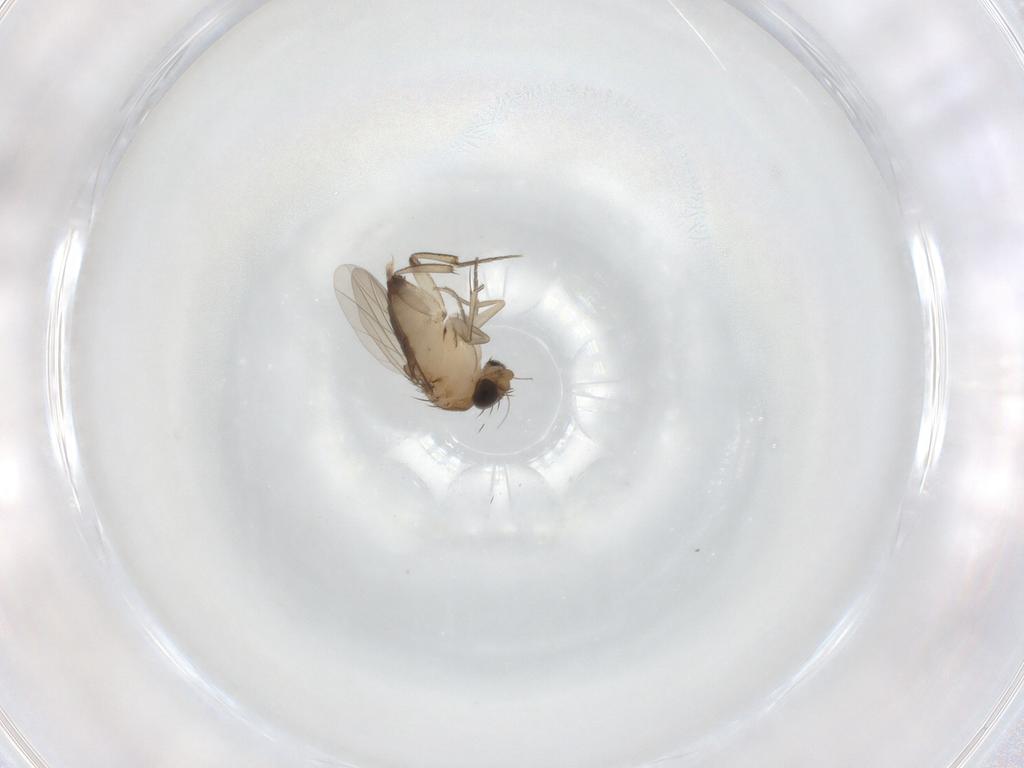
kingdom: Animalia
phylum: Arthropoda
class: Insecta
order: Diptera
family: Phoridae
